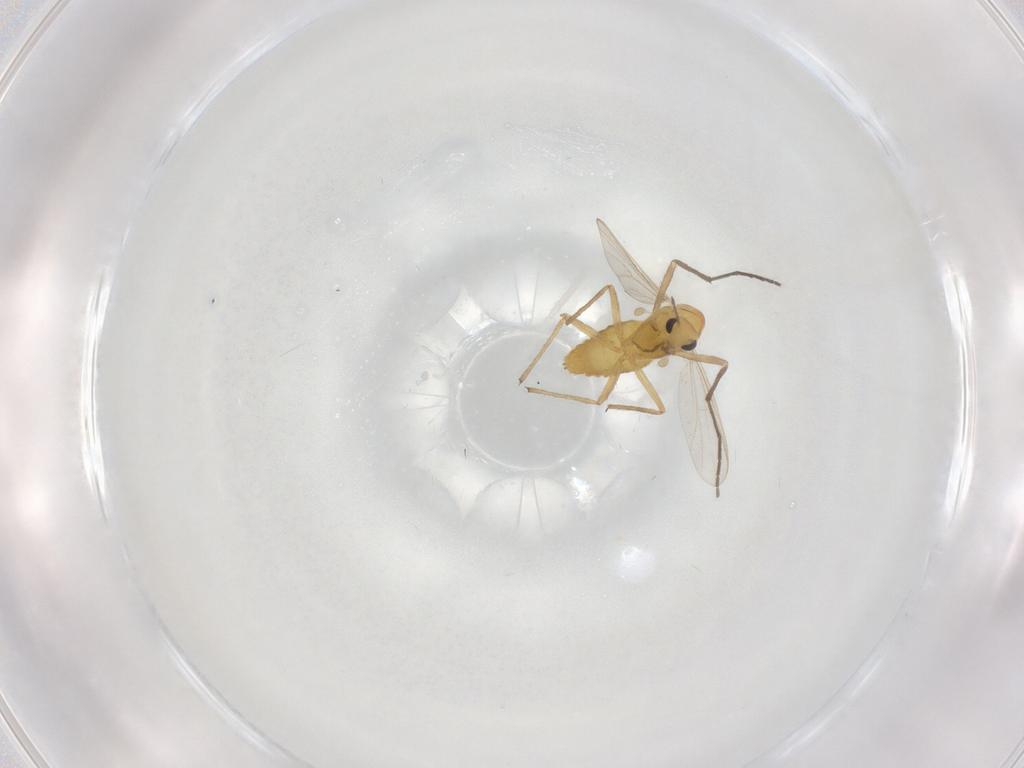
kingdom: Animalia
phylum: Arthropoda
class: Insecta
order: Diptera
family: Chironomidae
